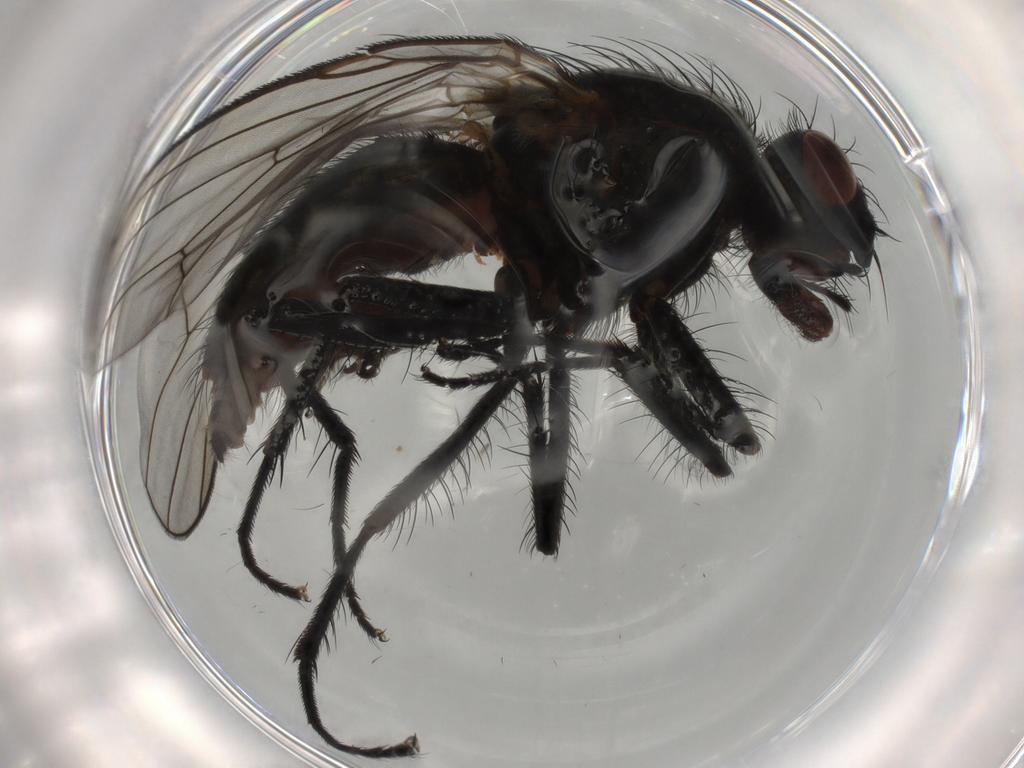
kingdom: Animalia
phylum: Arthropoda
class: Insecta
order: Diptera
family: Anthomyiidae
